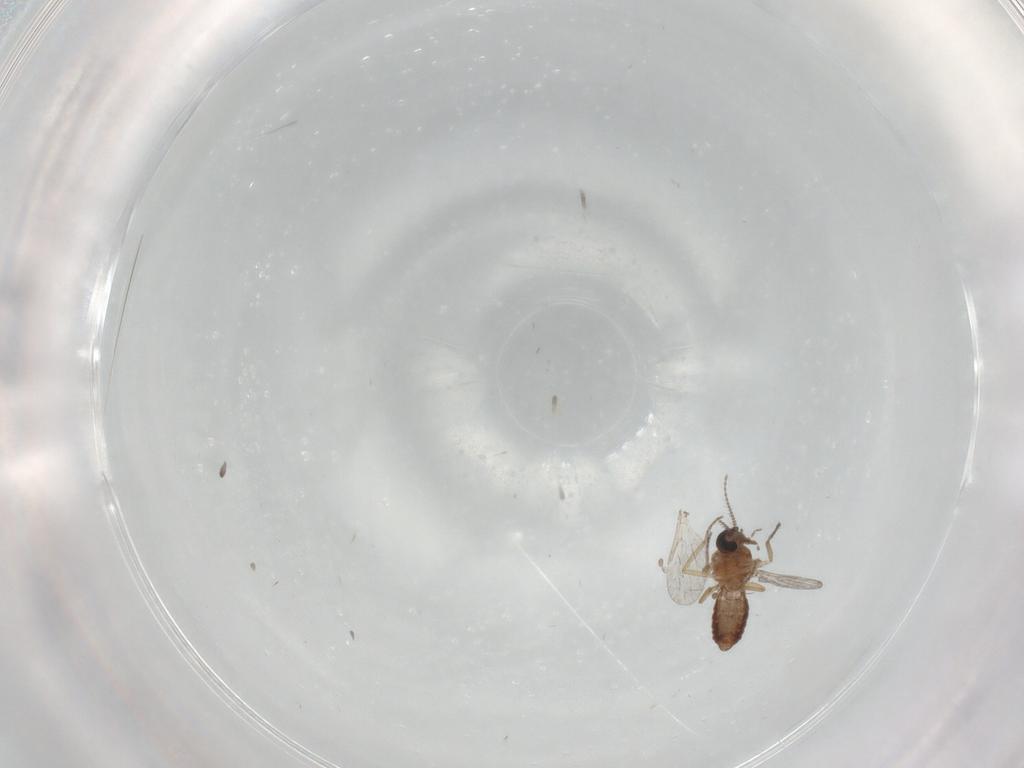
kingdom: Animalia
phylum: Arthropoda
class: Insecta
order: Diptera
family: Ceratopogonidae
